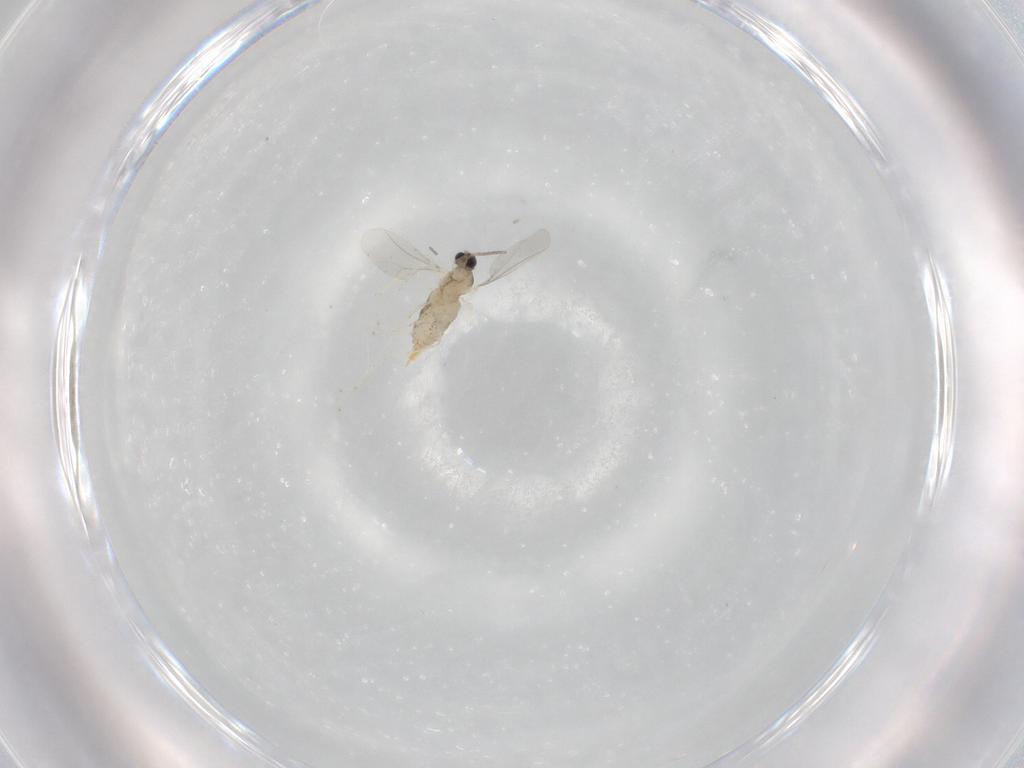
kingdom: Animalia
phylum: Arthropoda
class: Insecta
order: Diptera
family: Cecidomyiidae
